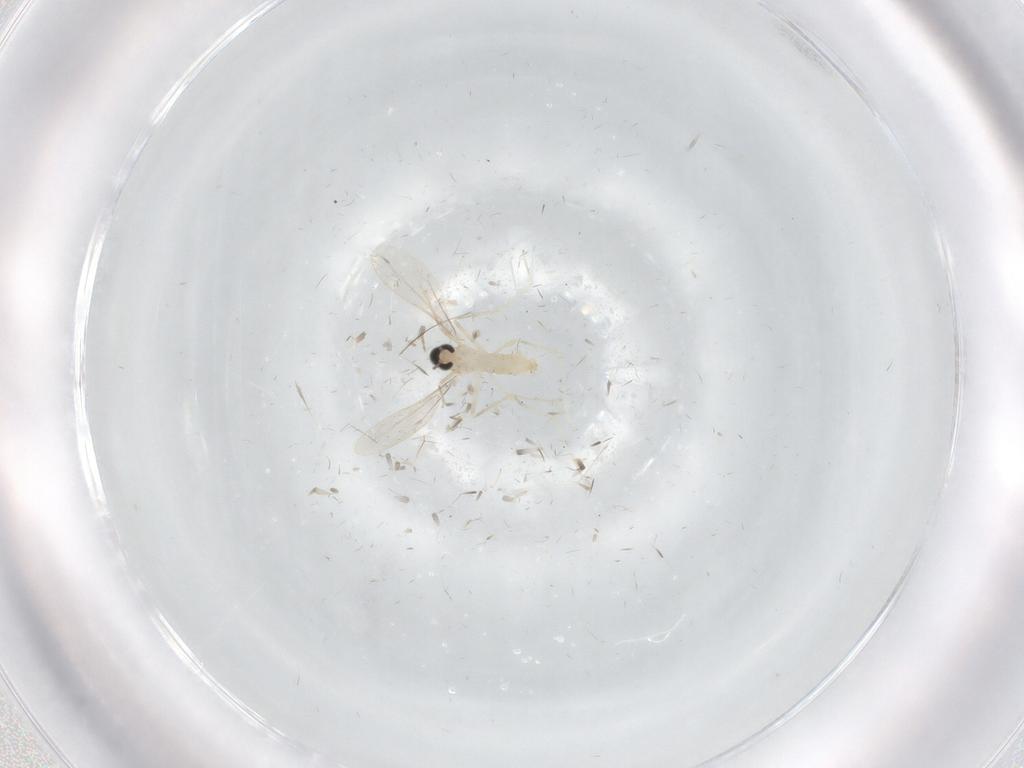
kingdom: Animalia
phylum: Arthropoda
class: Insecta
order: Diptera
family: Cecidomyiidae
